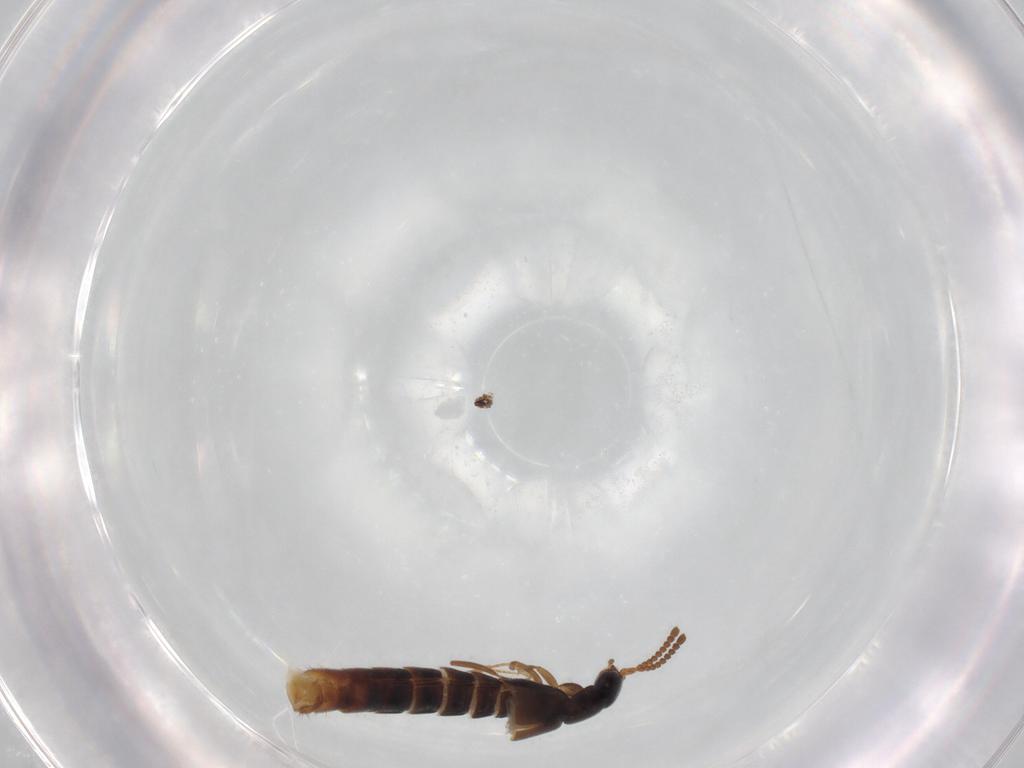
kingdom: Animalia
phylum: Arthropoda
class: Insecta
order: Coleoptera
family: Staphylinidae
